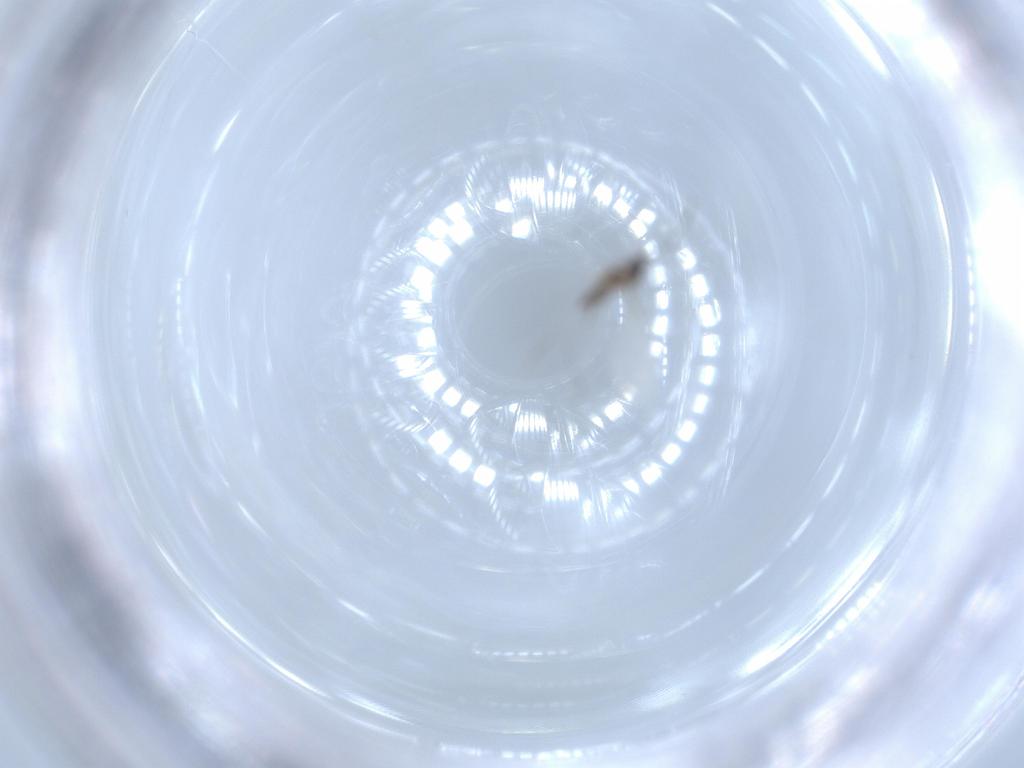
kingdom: Animalia
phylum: Arthropoda
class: Insecta
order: Diptera
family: Cecidomyiidae
